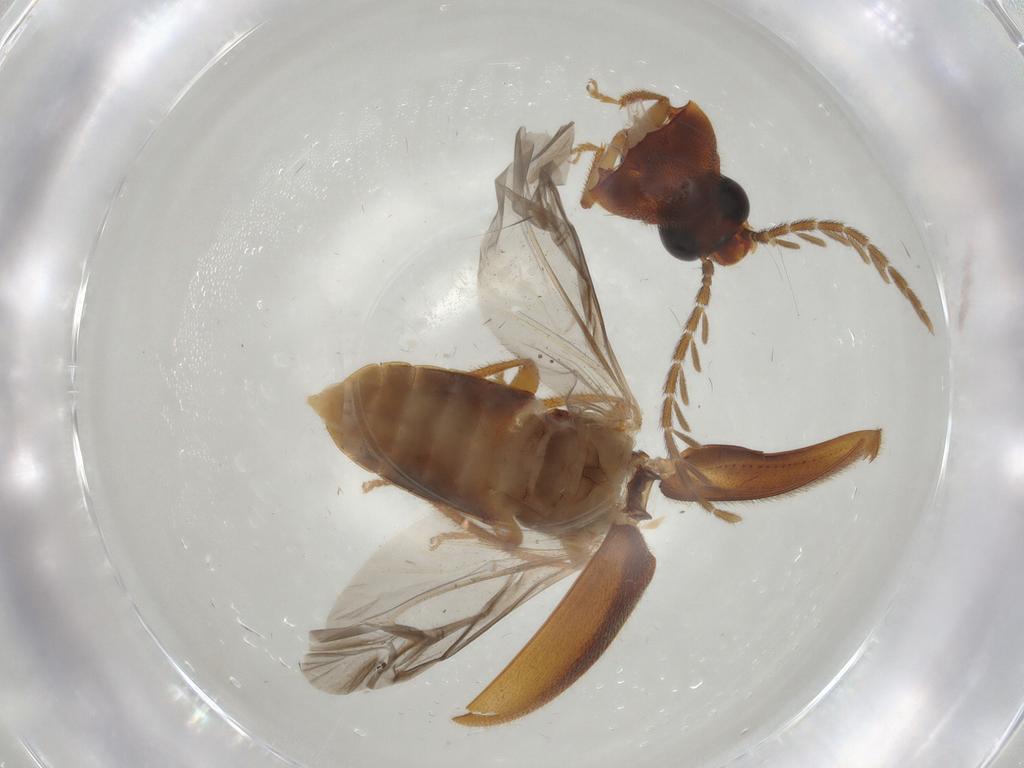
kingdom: Animalia
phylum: Arthropoda
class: Insecta
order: Coleoptera
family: Ptilodactylidae
